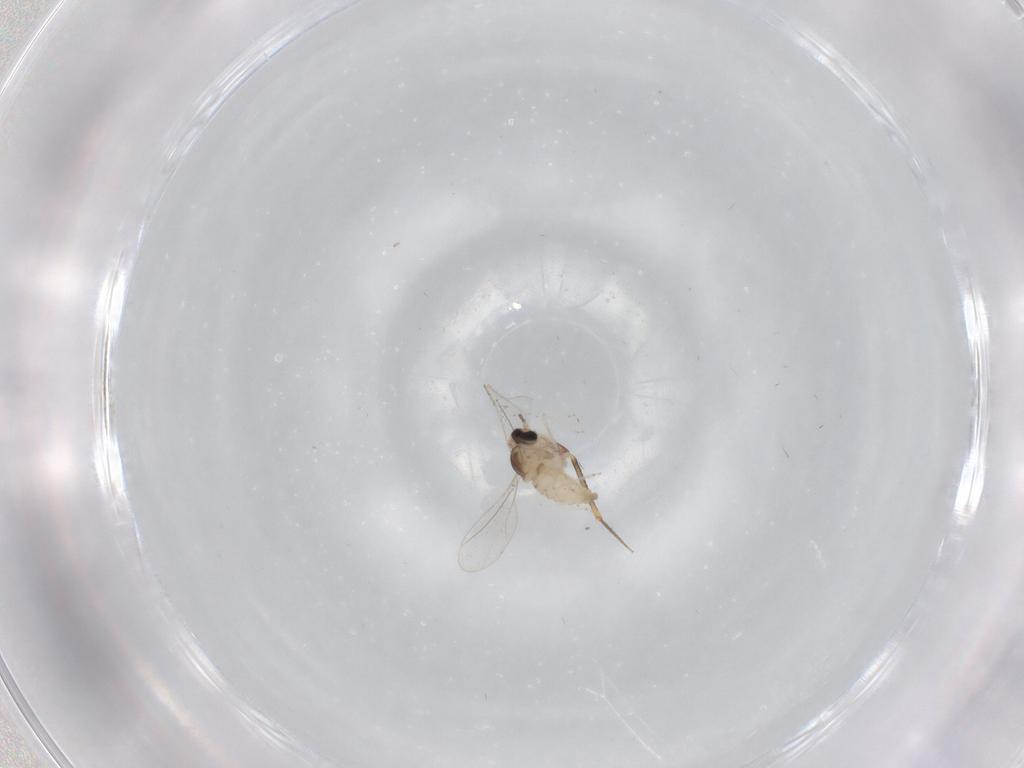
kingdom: Animalia
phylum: Arthropoda
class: Insecta
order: Diptera
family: Cecidomyiidae
